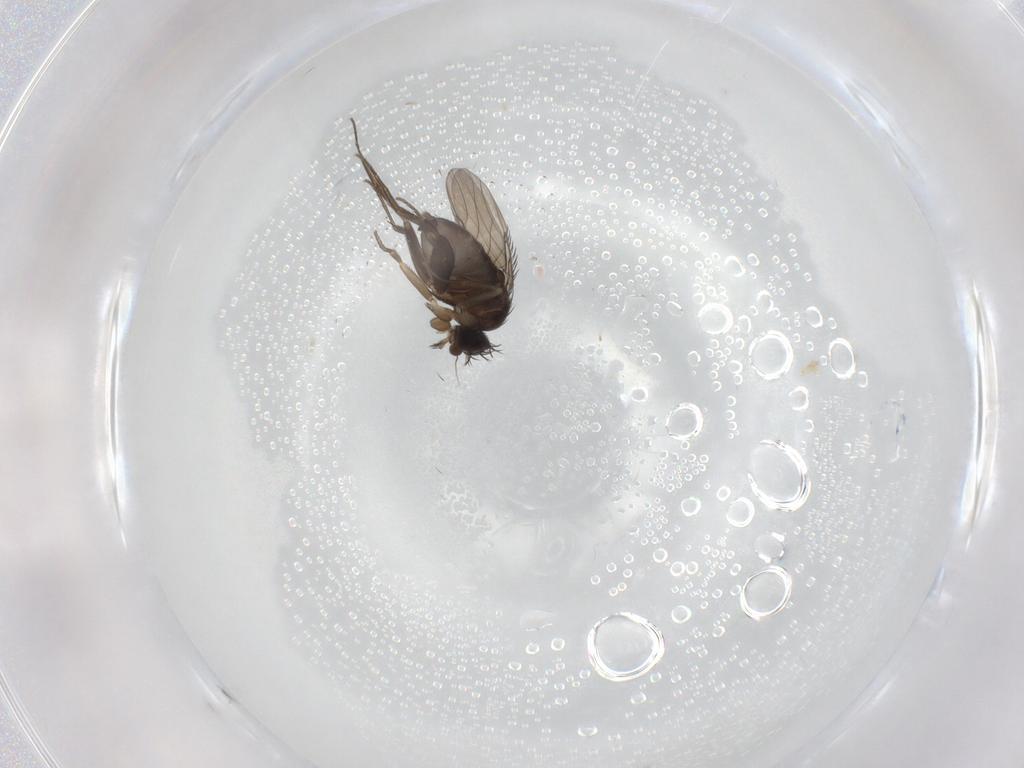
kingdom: Animalia
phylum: Arthropoda
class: Insecta
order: Diptera
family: Phoridae
